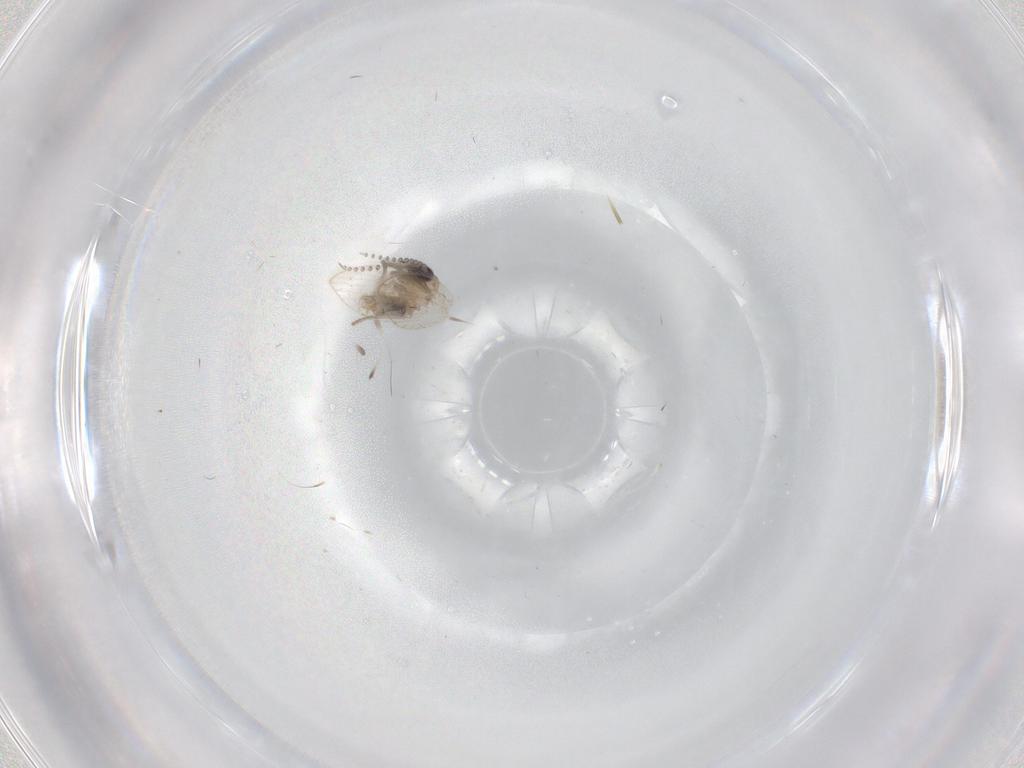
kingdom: Animalia
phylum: Arthropoda
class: Insecta
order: Diptera
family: Psychodidae
